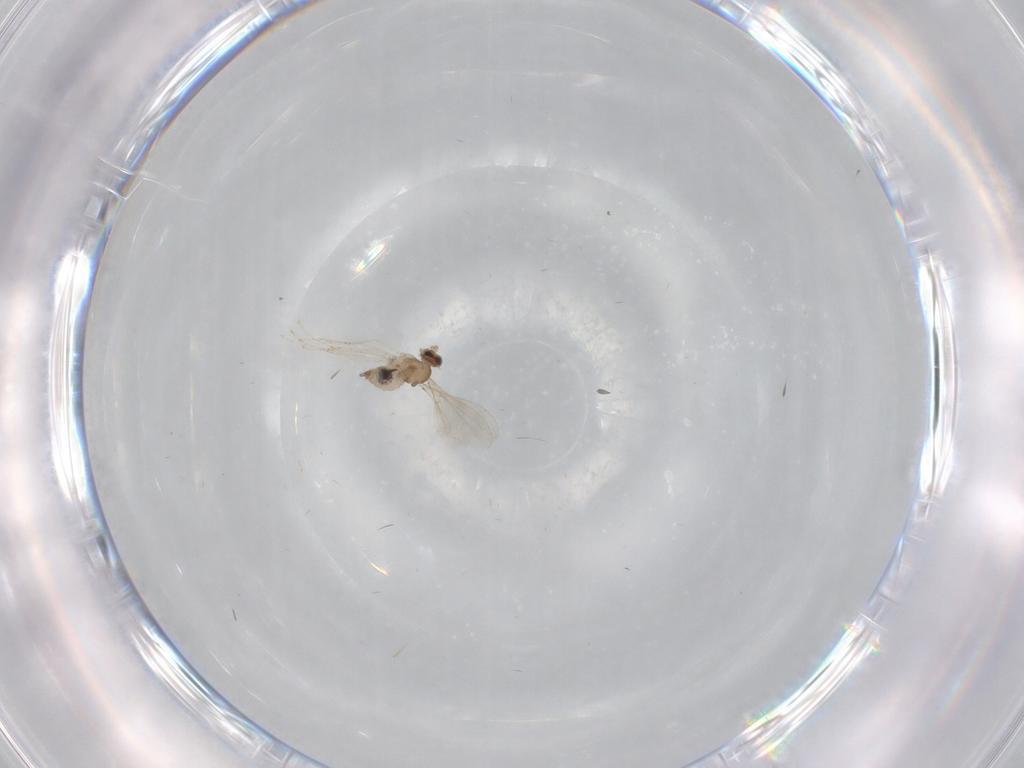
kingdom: Animalia
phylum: Arthropoda
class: Insecta
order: Diptera
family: Cecidomyiidae
